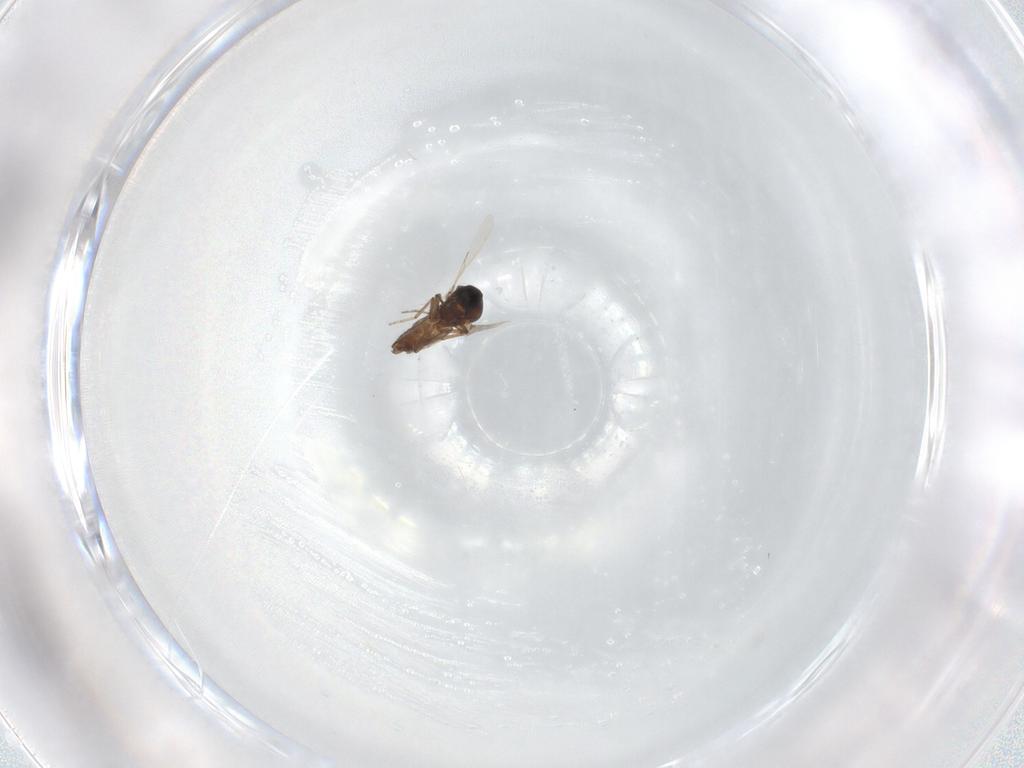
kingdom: Animalia
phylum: Arthropoda
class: Insecta
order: Diptera
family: Ceratopogonidae
